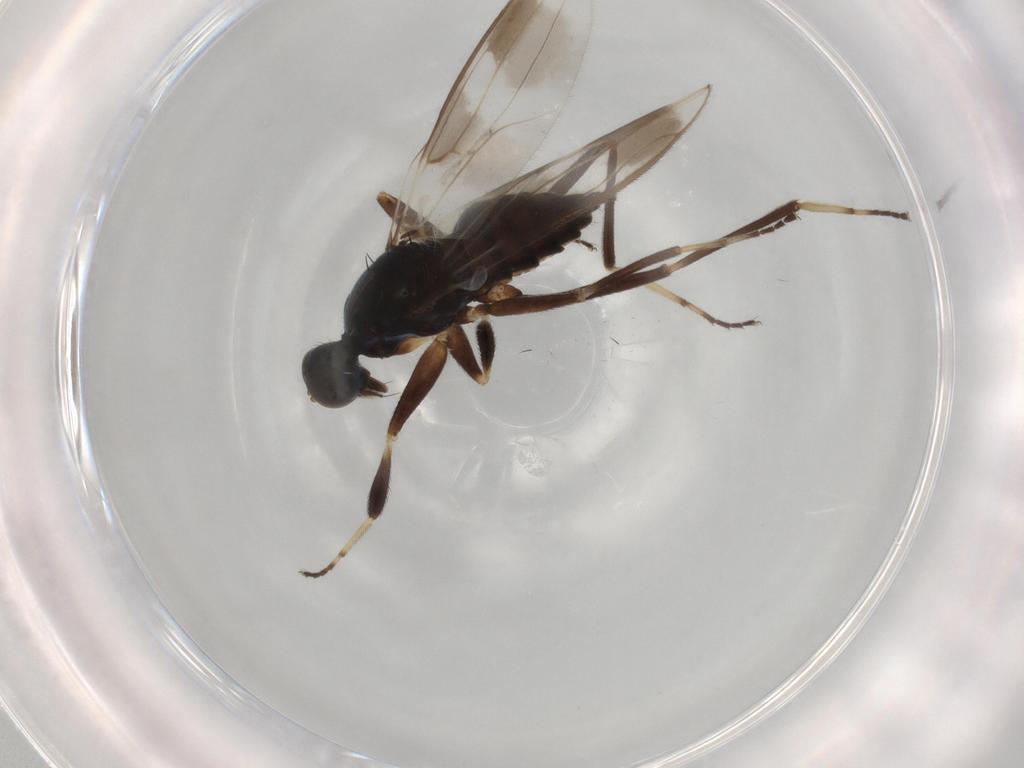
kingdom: Animalia
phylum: Arthropoda
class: Insecta
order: Diptera
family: Hybotidae
